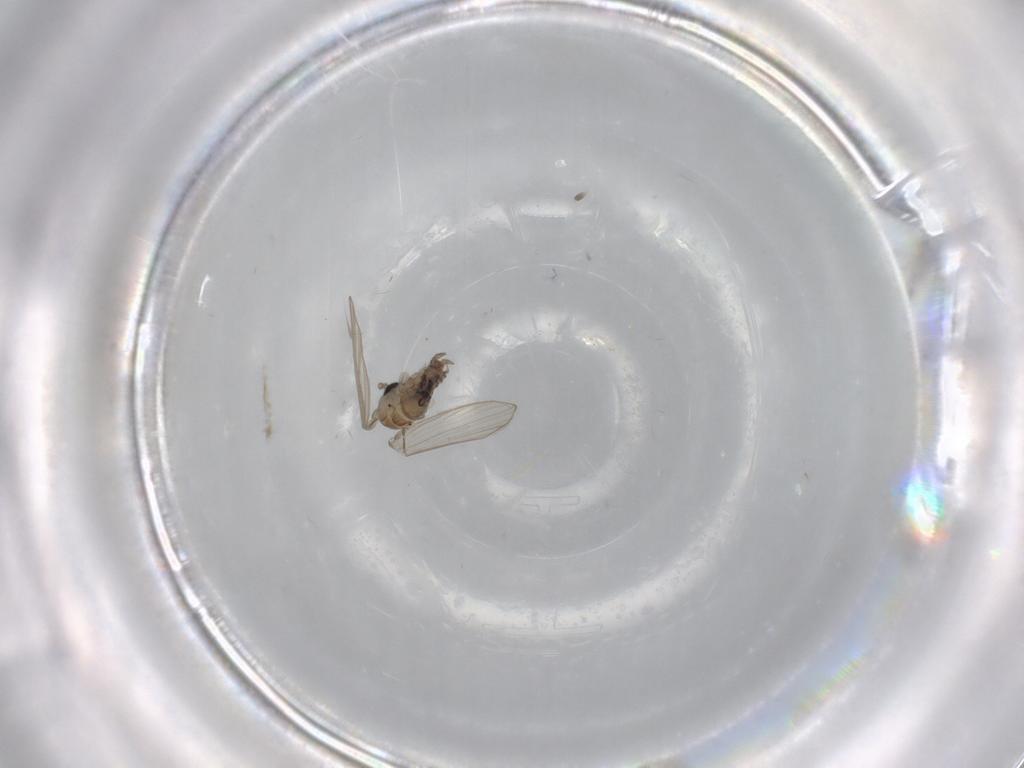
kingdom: Animalia
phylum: Arthropoda
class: Insecta
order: Diptera
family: Psychodidae
